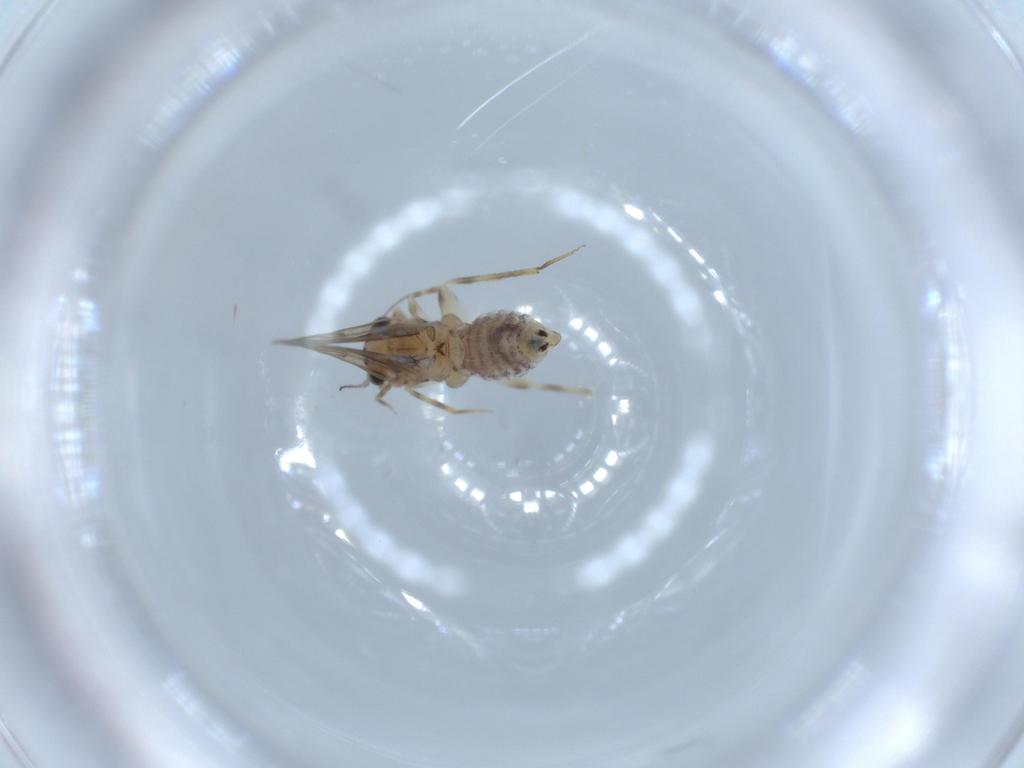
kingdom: Animalia
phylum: Arthropoda
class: Insecta
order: Psocodea
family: Lepidopsocidae
